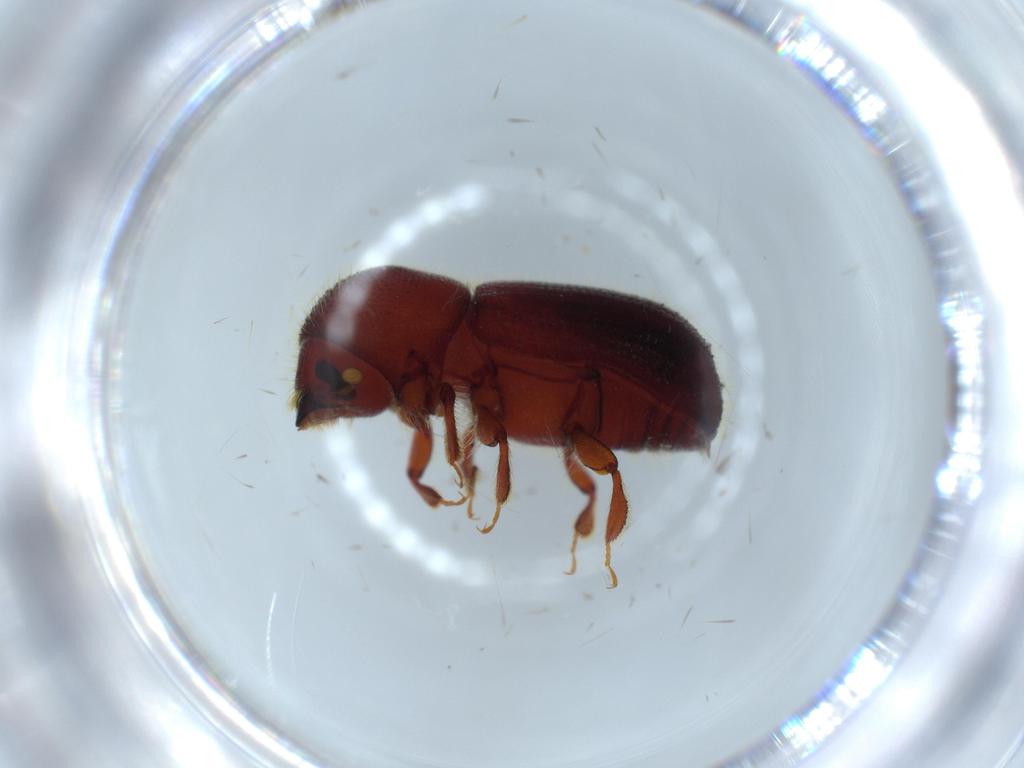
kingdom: Animalia
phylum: Arthropoda
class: Insecta
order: Coleoptera
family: Curculionidae
